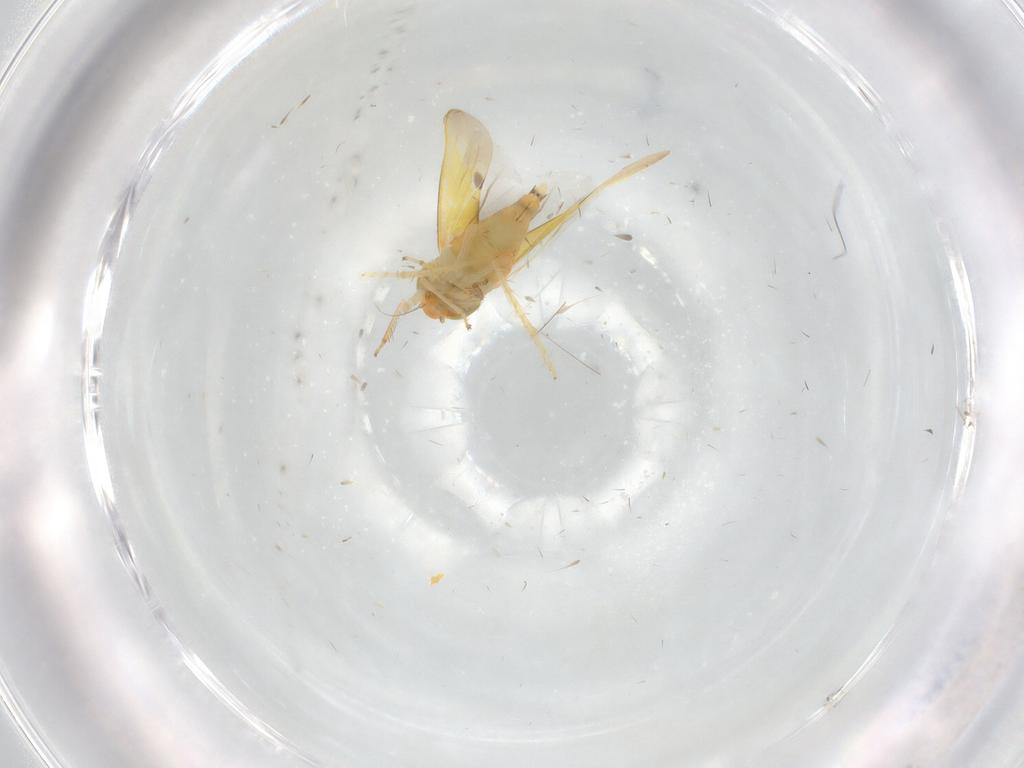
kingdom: Animalia
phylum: Arthropoda
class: Insecta
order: Hemiptera
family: Cicadellidae
